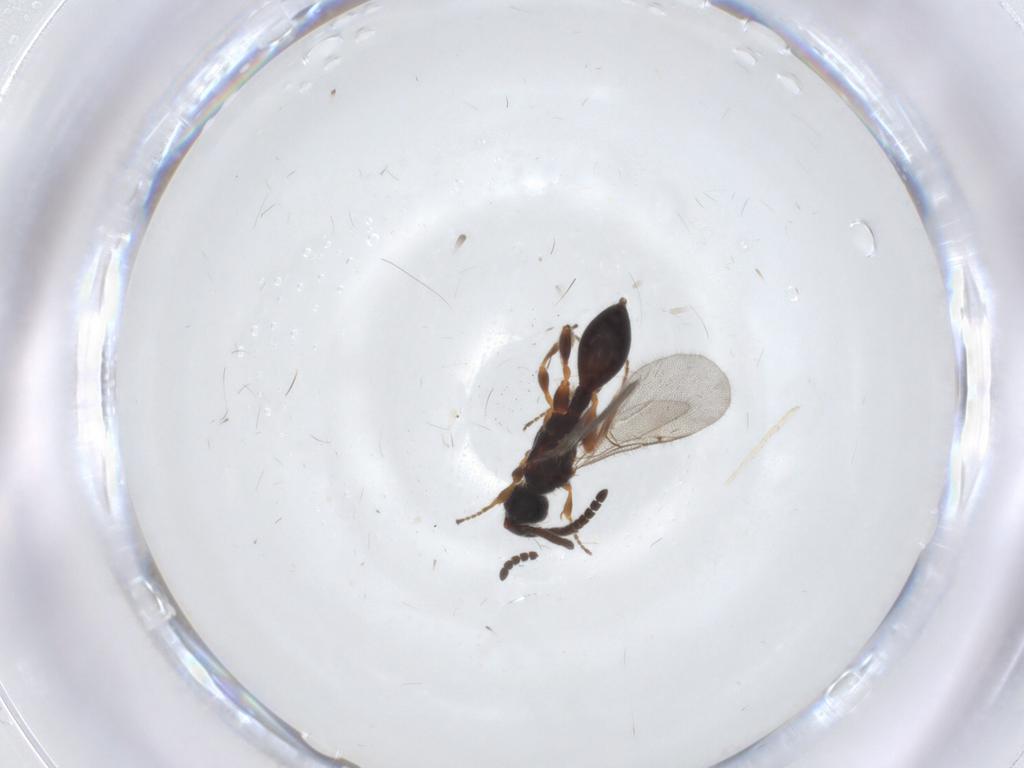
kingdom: Animalia
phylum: Arthropoda
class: Insecta
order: Hymenoptera
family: Diapriidae
